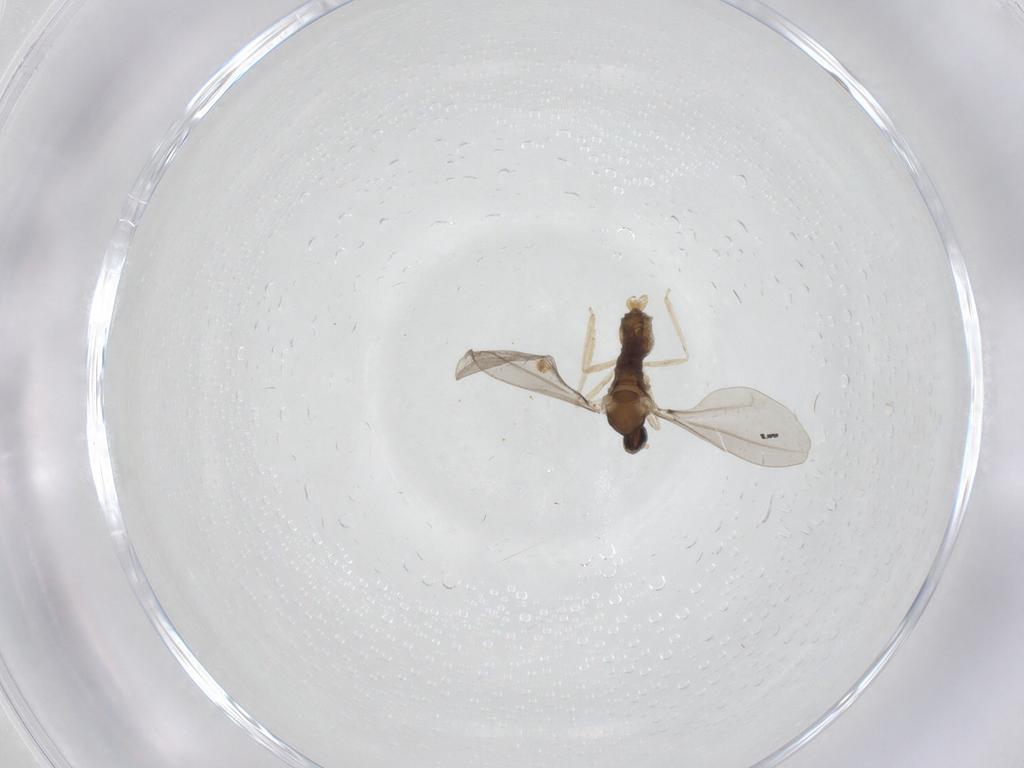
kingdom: Animalia
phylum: Arthropoda
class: Insecta
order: Diptera
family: Cecidomyiidae
